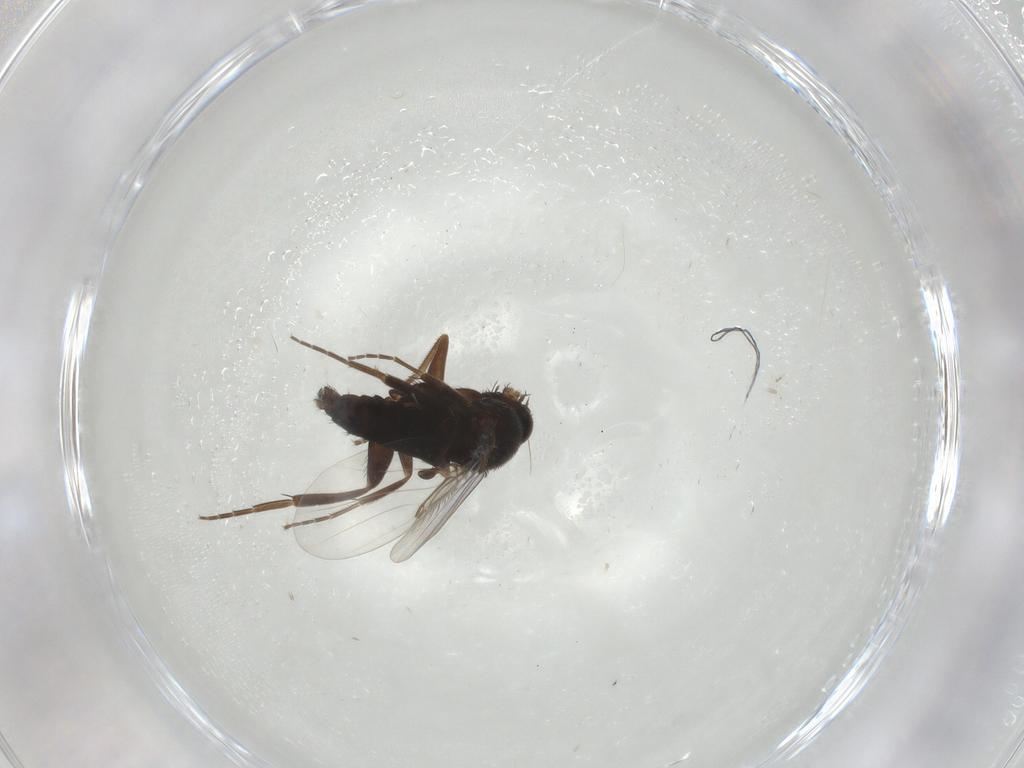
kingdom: Animalia
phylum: Arthropoda
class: Insecta
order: Diptera
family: Phoridae
